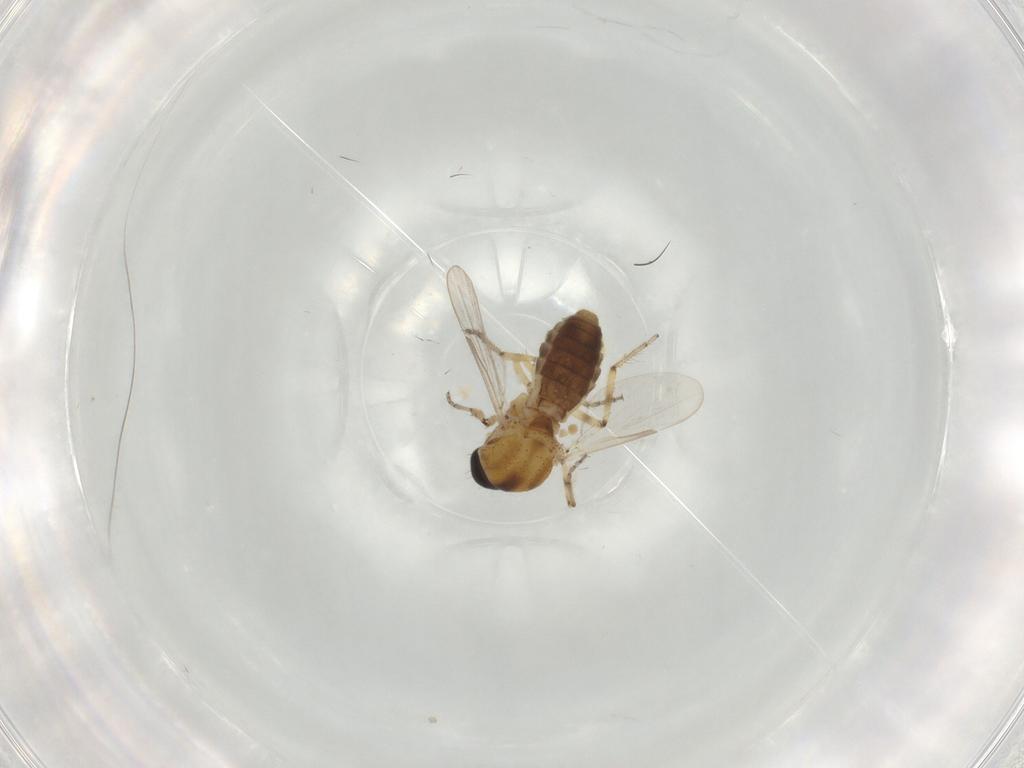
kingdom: Animalia
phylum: Arthropoda
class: Insecta
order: Diptera
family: Ceratopogonidae
